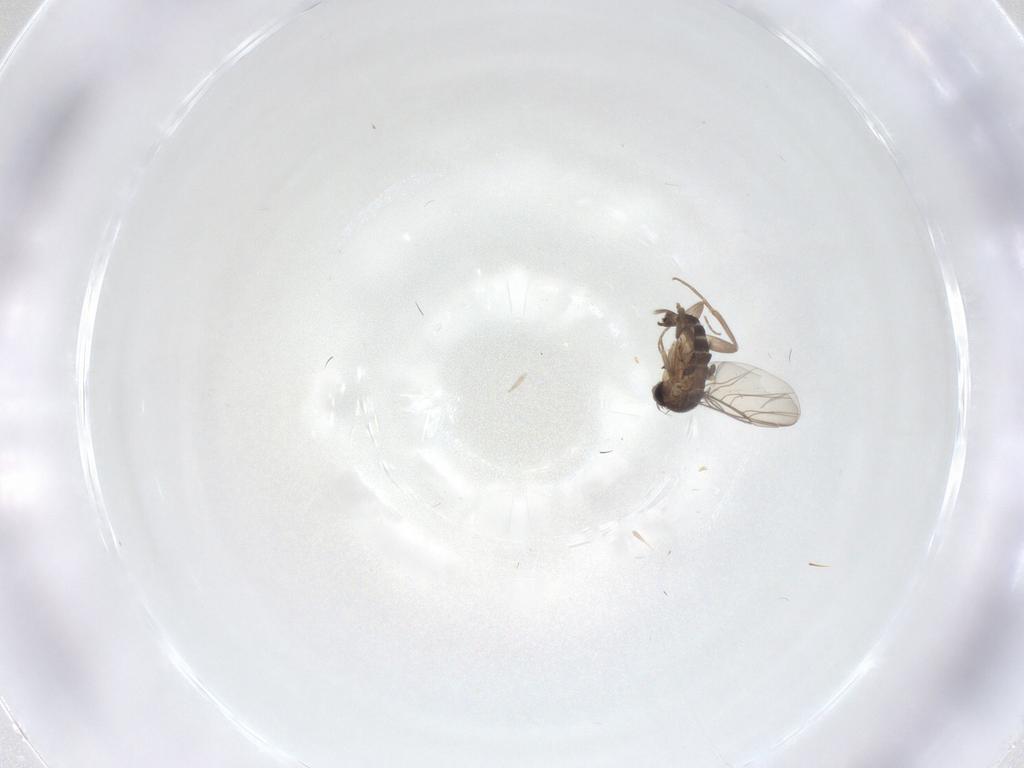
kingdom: Animalia
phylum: Arthropoda
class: Insecta
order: Diptera
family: Milichiidae
